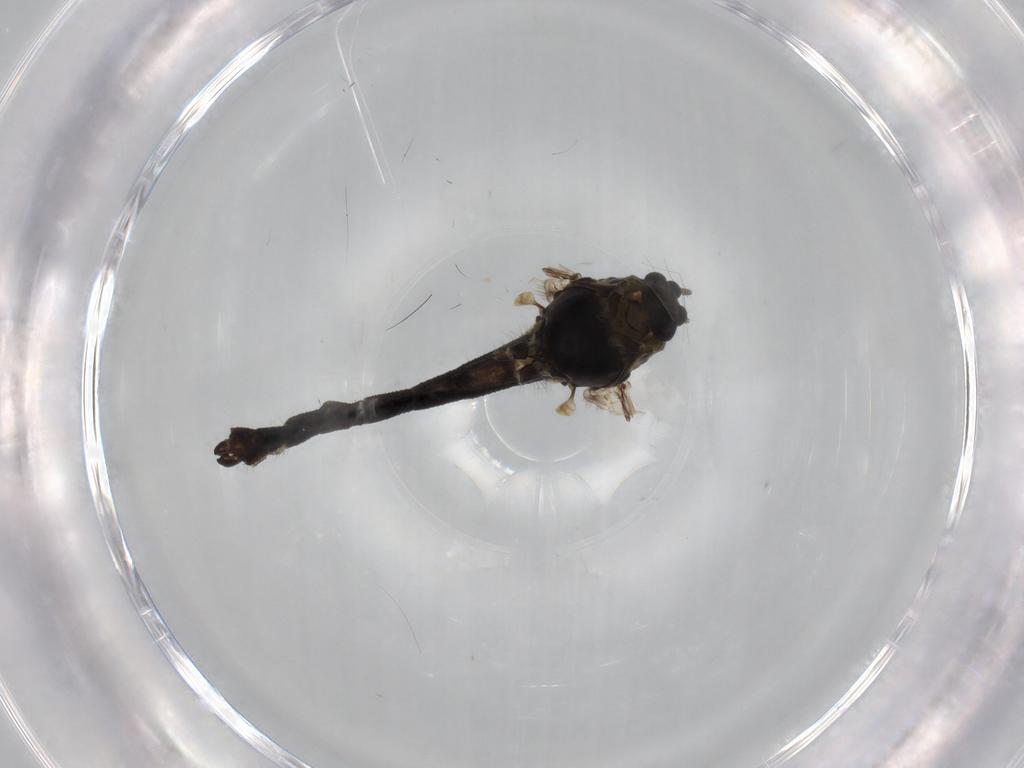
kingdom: Animalia
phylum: Arthropoda
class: Insecta
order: Diptera
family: Chironomidae
